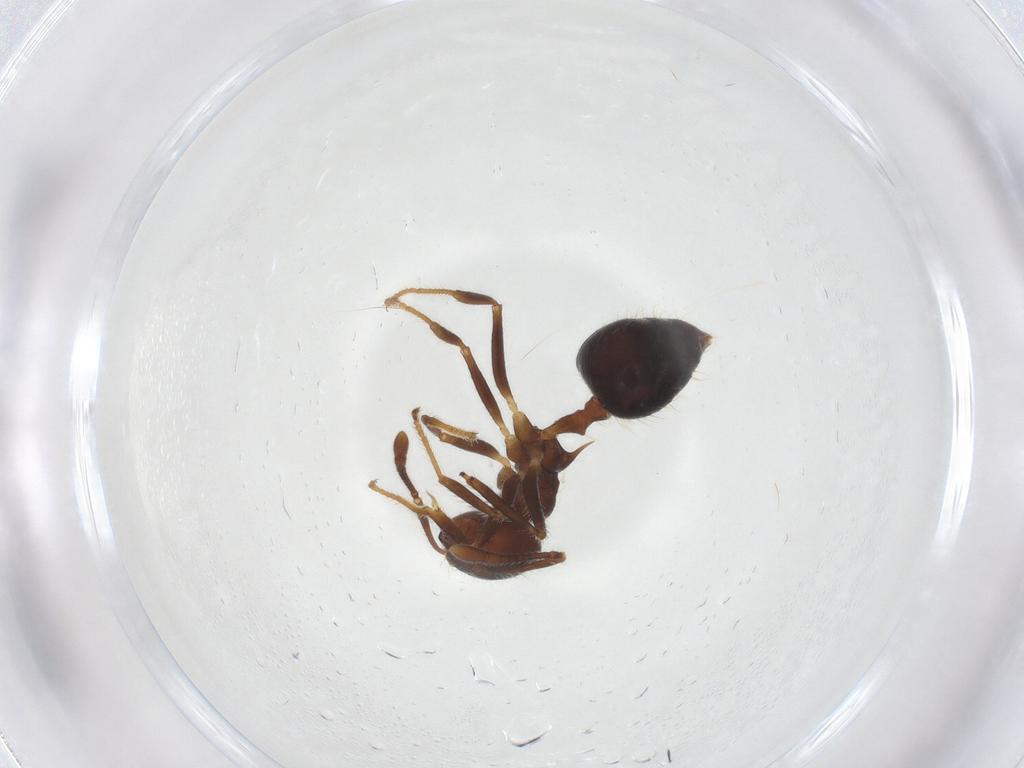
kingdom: Animalia
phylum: Arthropoda
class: Insecta
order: Hymenoptera
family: Formicidae
